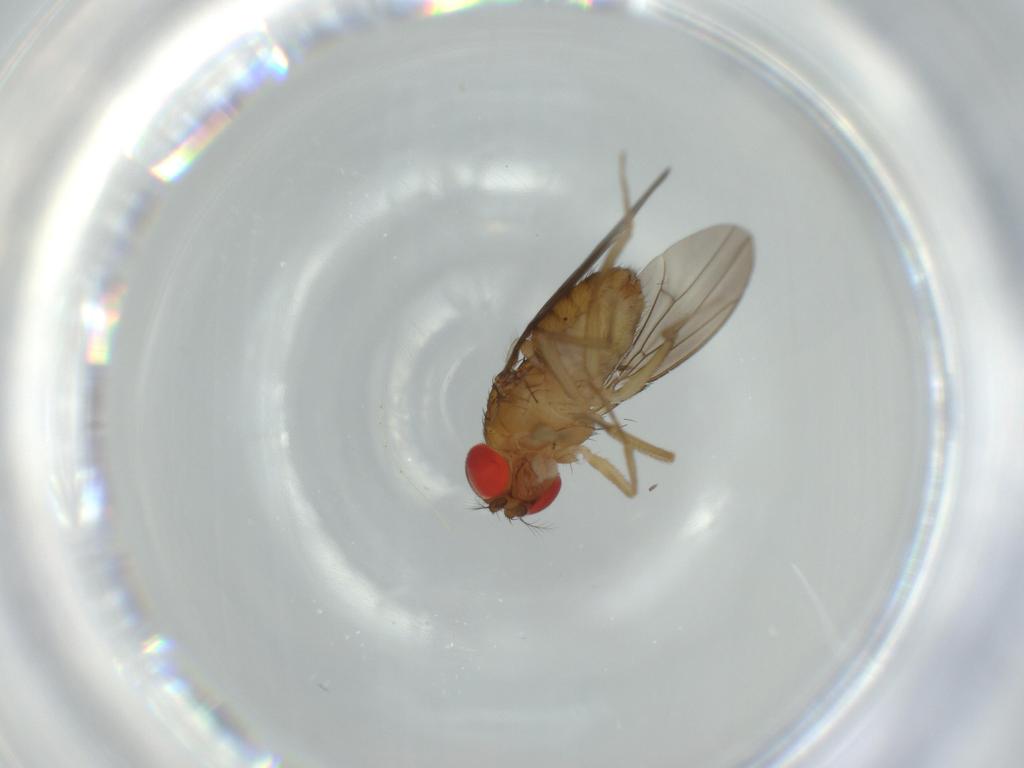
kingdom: Animalia
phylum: Arthropoda
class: Insecta
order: Diptera
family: Drosophilidae
